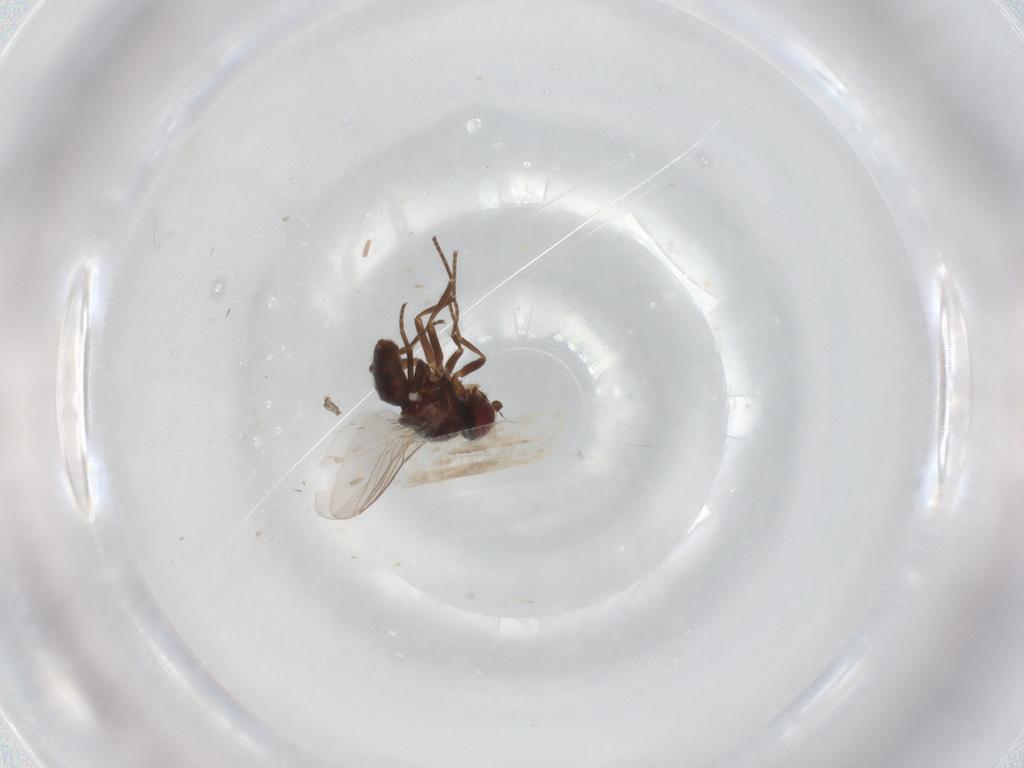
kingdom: Animalia
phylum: Arthropoda
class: Insecta
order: Diptera
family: Dolichopodidae
